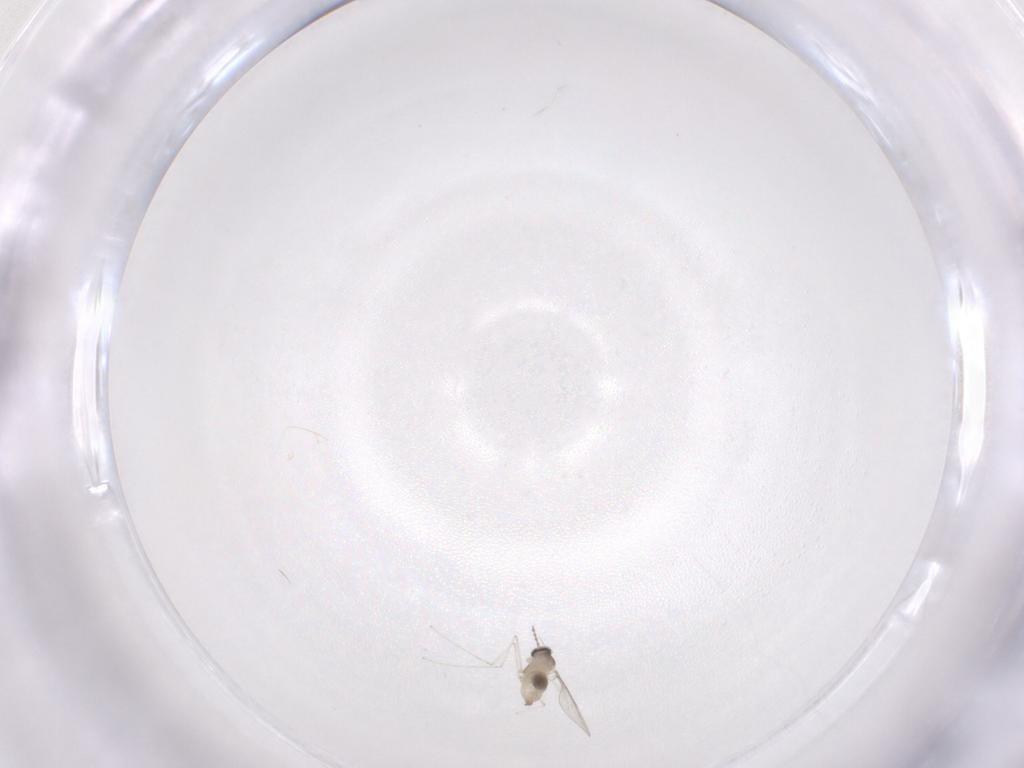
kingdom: Animalia
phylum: Arthropoda
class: Insecta
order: Diptera
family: Cecidomyiidae
